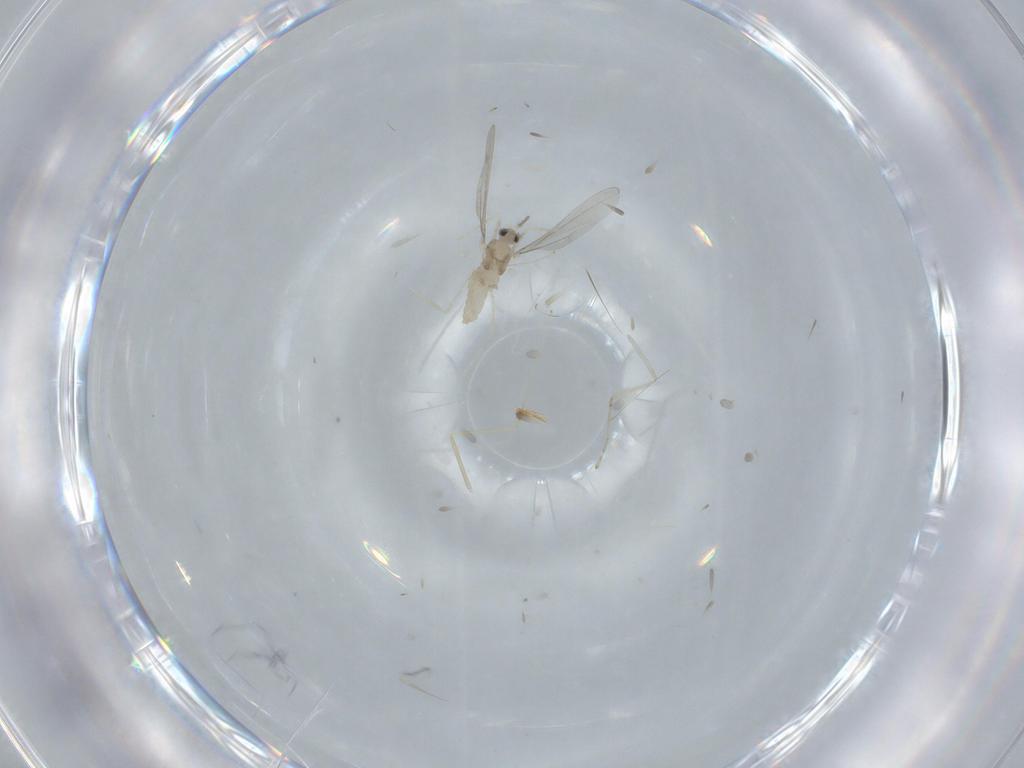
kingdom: Animalia
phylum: Arthropoda
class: Insecta
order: Diptera
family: Cecidomyiidae
